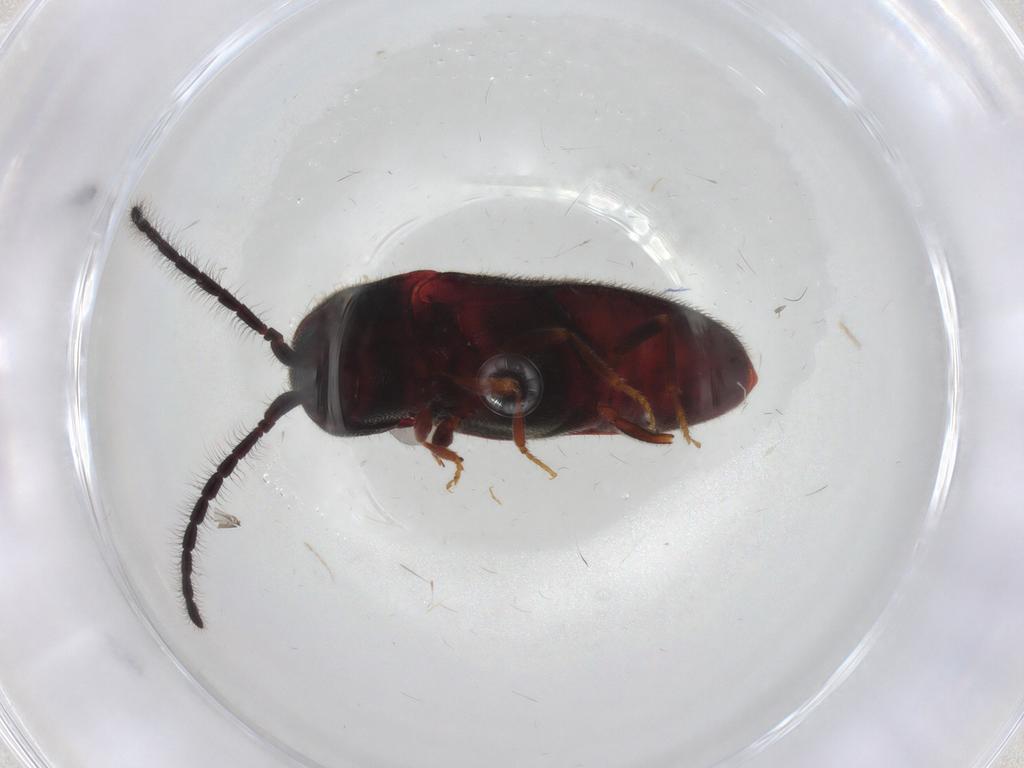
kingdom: Animalia
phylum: Arthropoda
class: Insecta
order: Coleoptera
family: Eucnemidae
